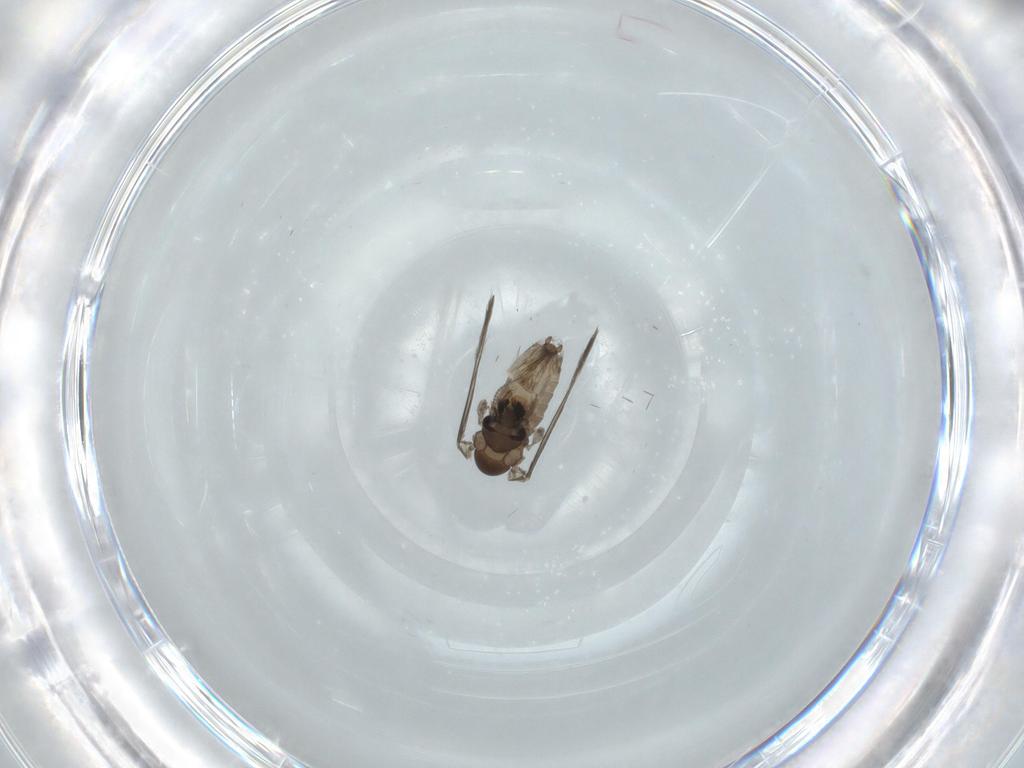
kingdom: Animalia
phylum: Arthropoda
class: Insecta
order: Diptera
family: Psychodidae
